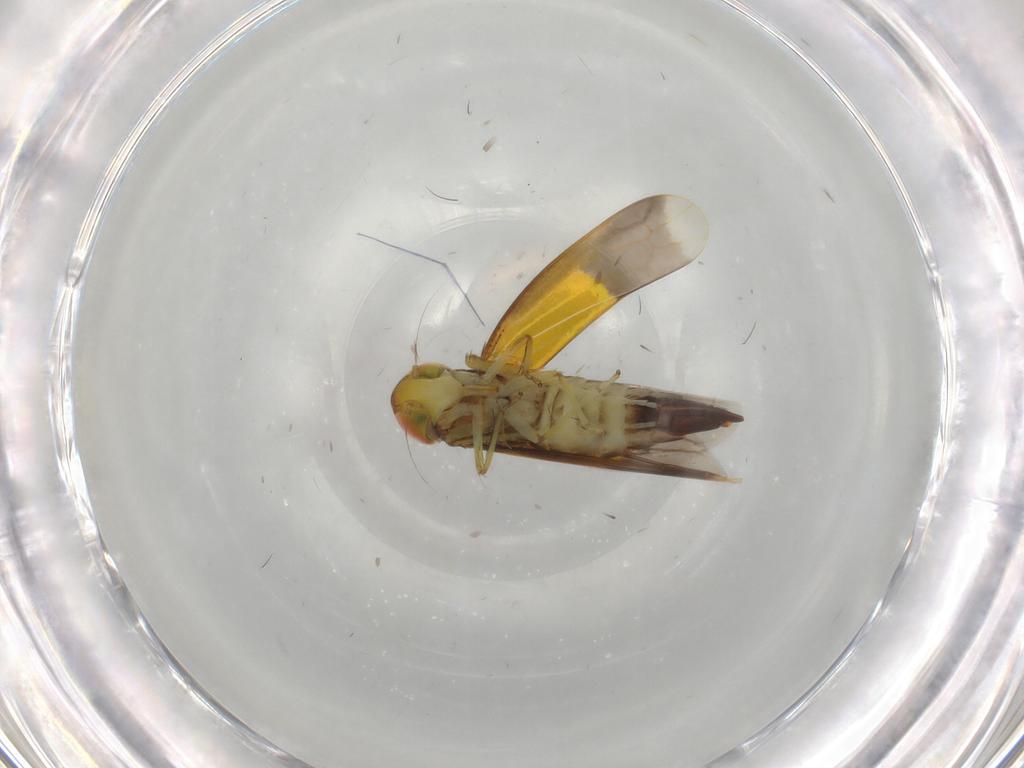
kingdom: Animalia
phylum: Arthropoda
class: Insecta
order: Hemiptera
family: Cicadellidae
